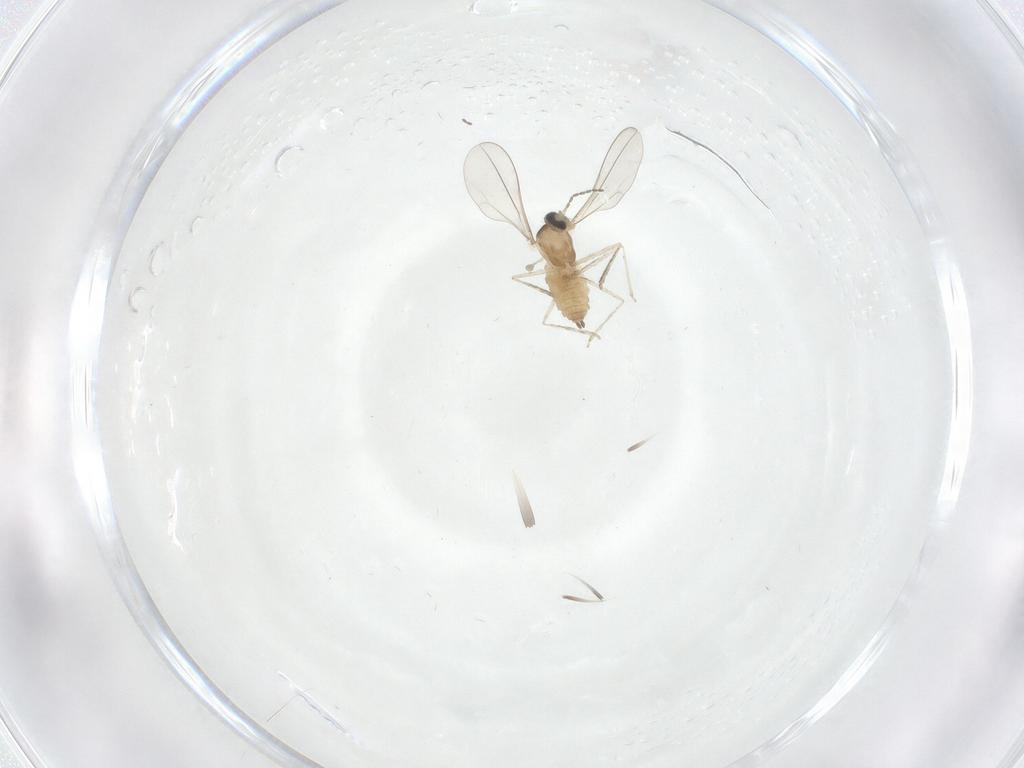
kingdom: Animalia
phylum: Arthropoda
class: Insecta
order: Diptera
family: Cecidomyiidae
